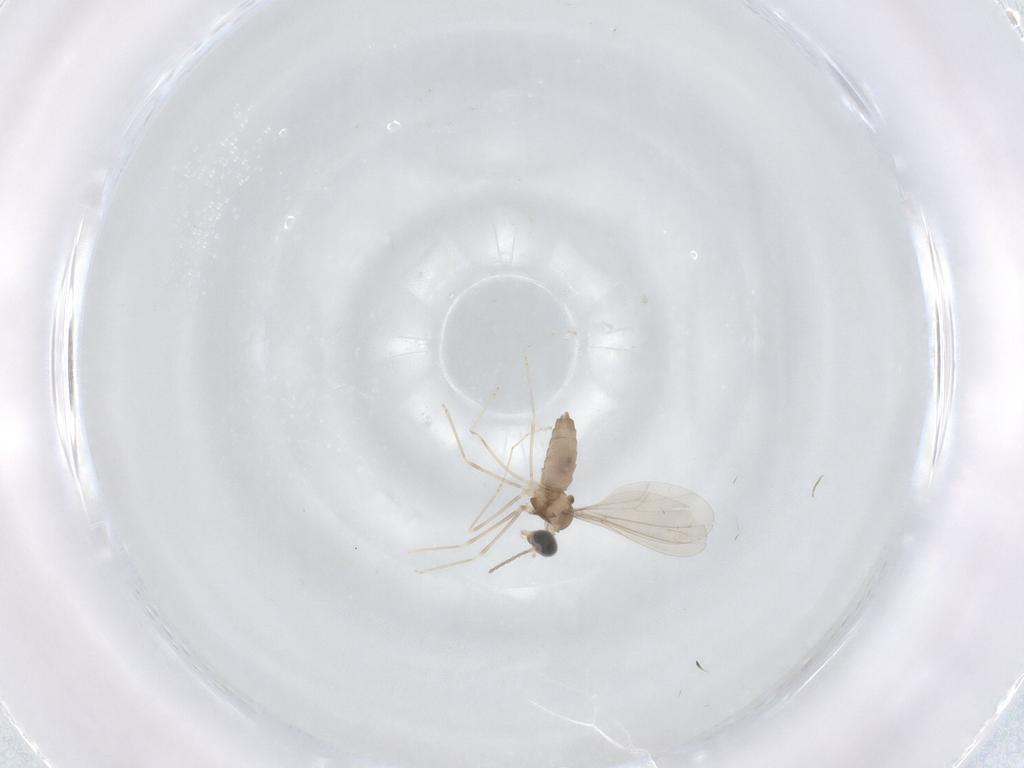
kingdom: Animalia
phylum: Arthropoda
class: Insecta
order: Diptera
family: Cecidomyiidae
